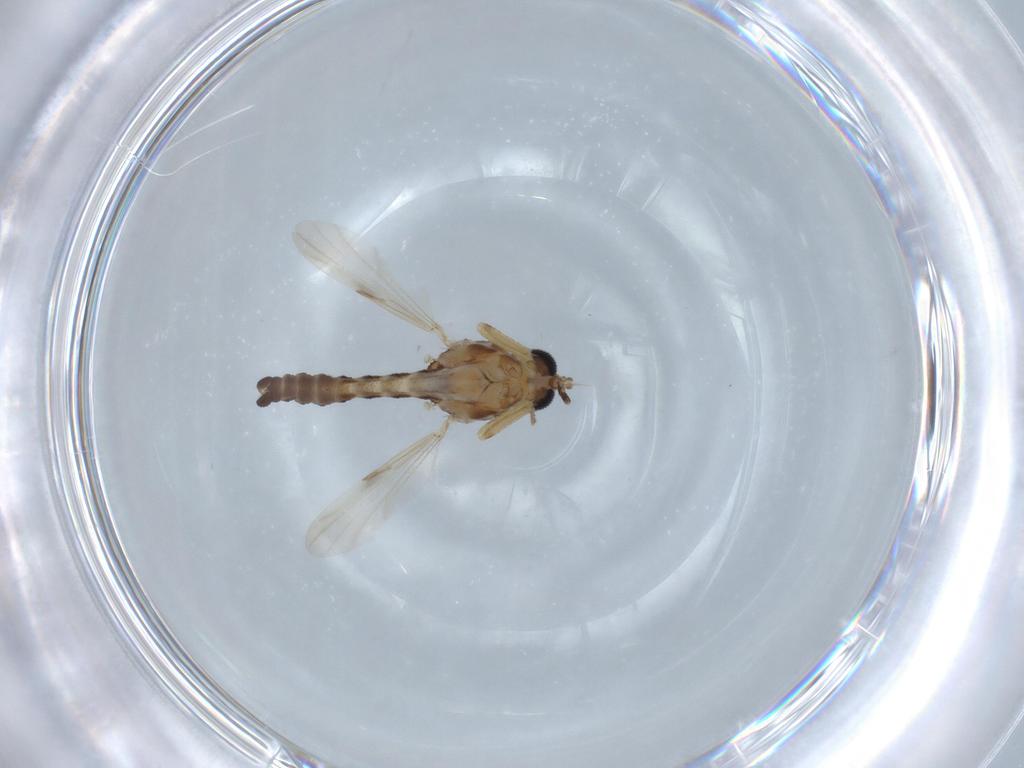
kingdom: Animalia
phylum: Arthropoda
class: Insecta
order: Diptera
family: Ceratopogonidae
